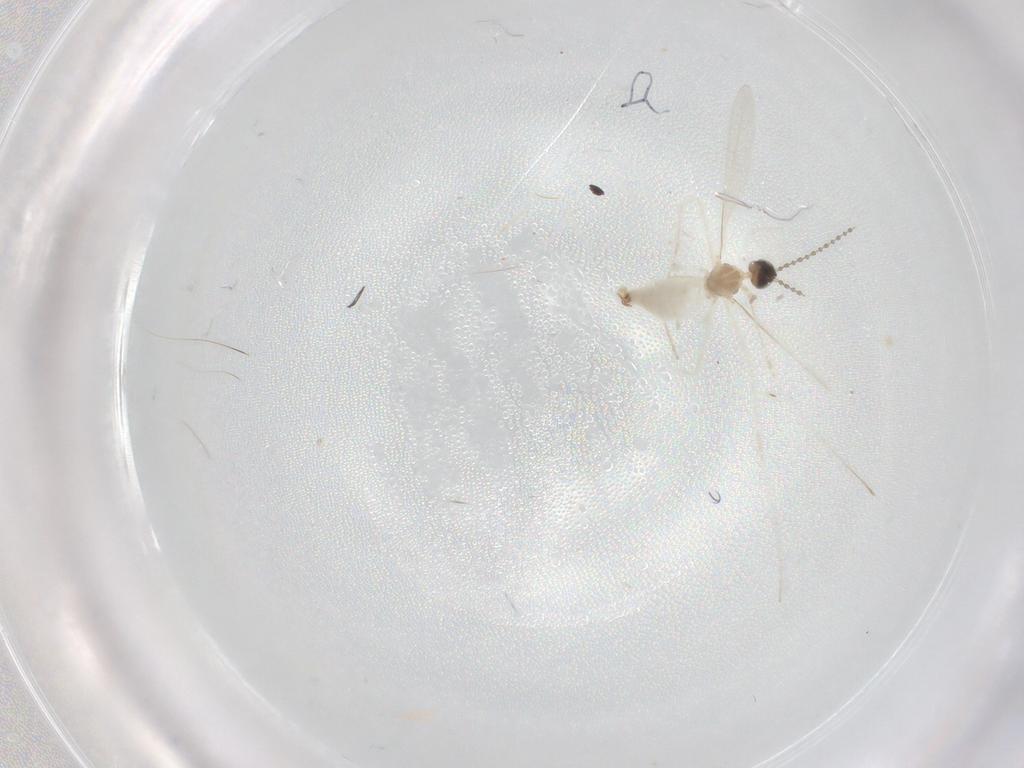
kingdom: Animalia
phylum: Arthropoda
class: Insecta
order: Diptera
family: Cecidomyiidae
